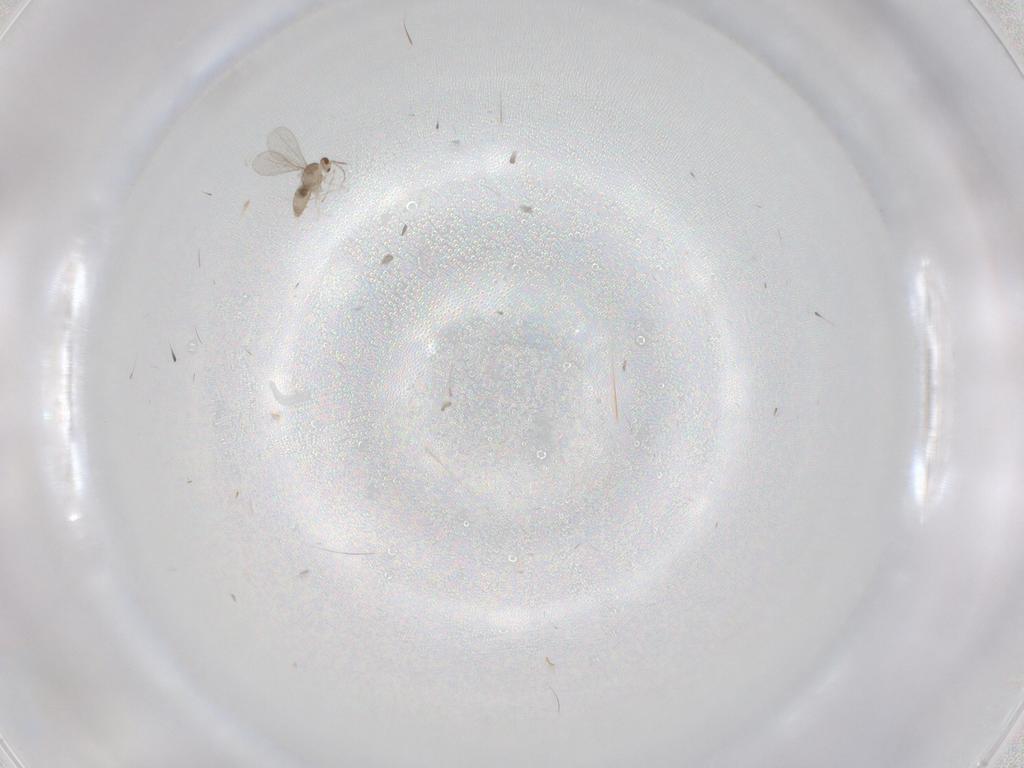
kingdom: Animalia
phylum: Arthropoda
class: Insecta
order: Diptera
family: Cecidomyiidae
